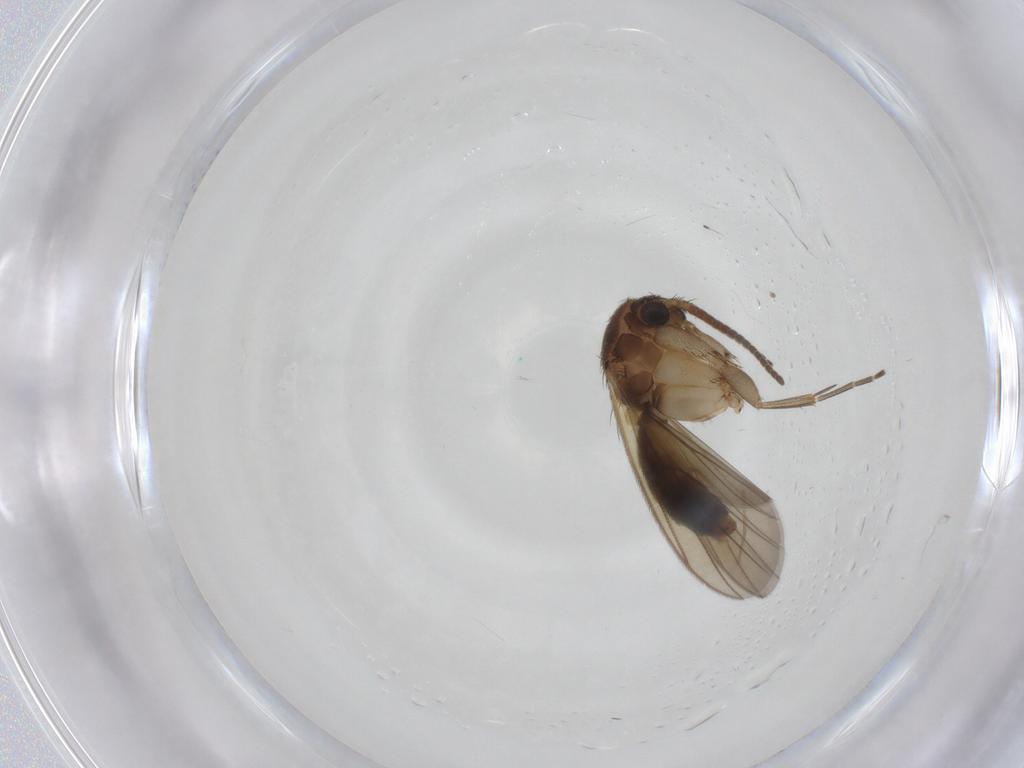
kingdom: Animalia
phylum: Arthropoda
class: Insecta
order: Diptera
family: Mycetophilidae
